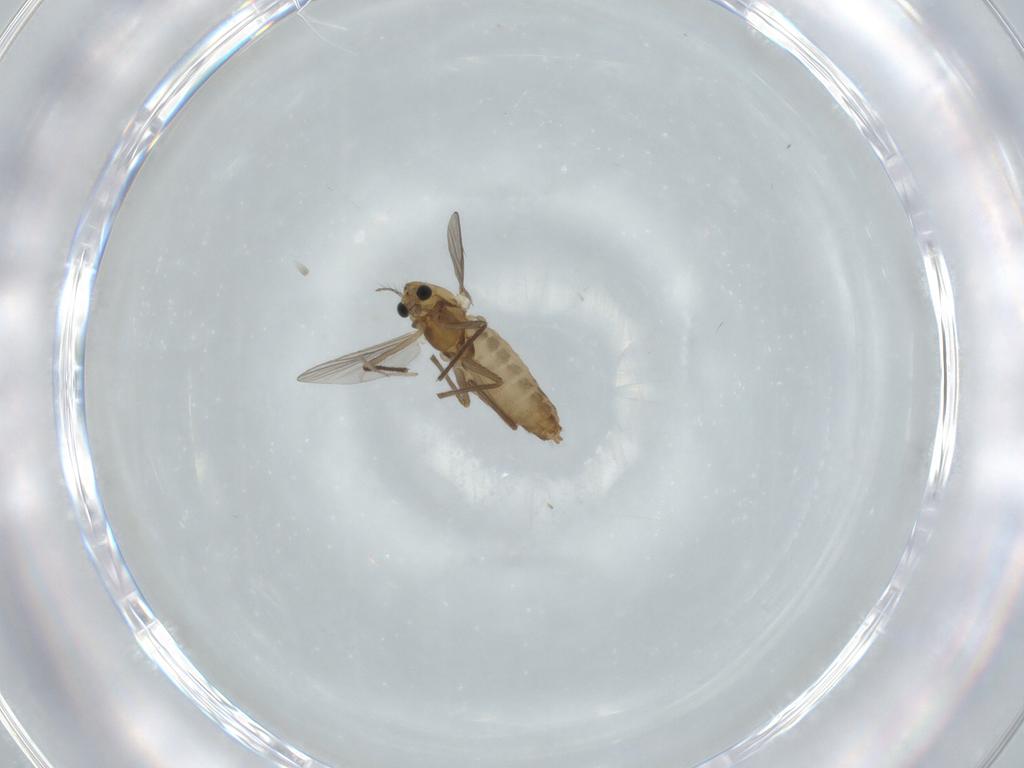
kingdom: Animalia
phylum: Arthropoda
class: Insecta
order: Diptera
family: Chironomidae
